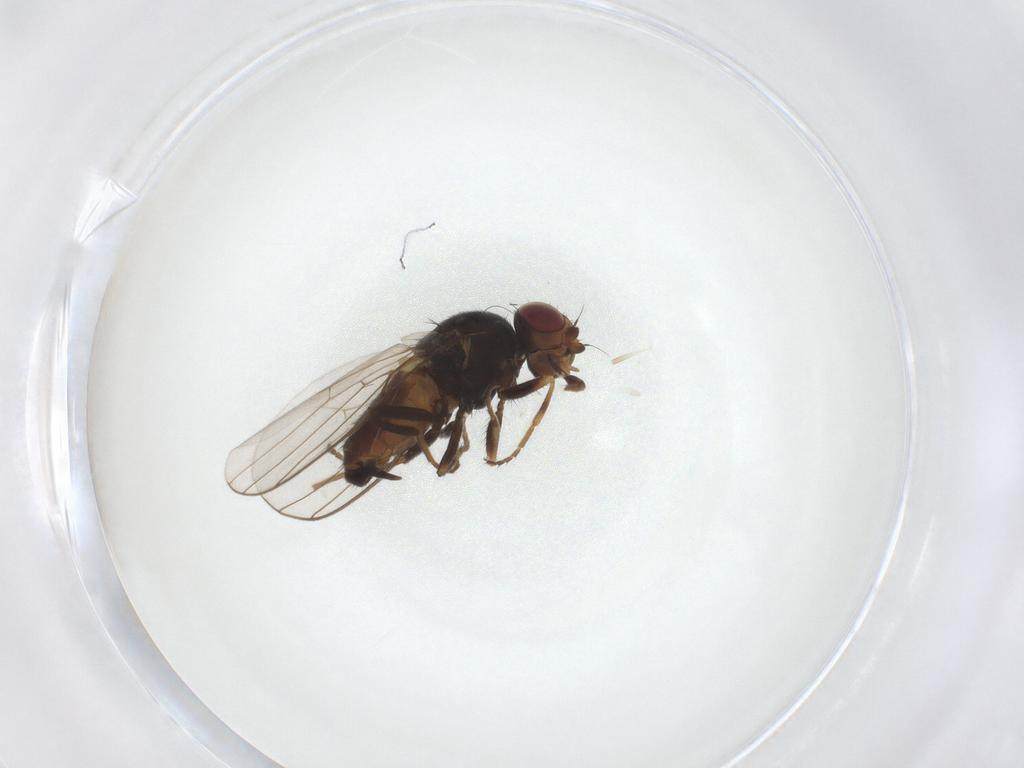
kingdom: Animalia
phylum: Arthropoda
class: Insecta
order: Diptera
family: Chloropidae
